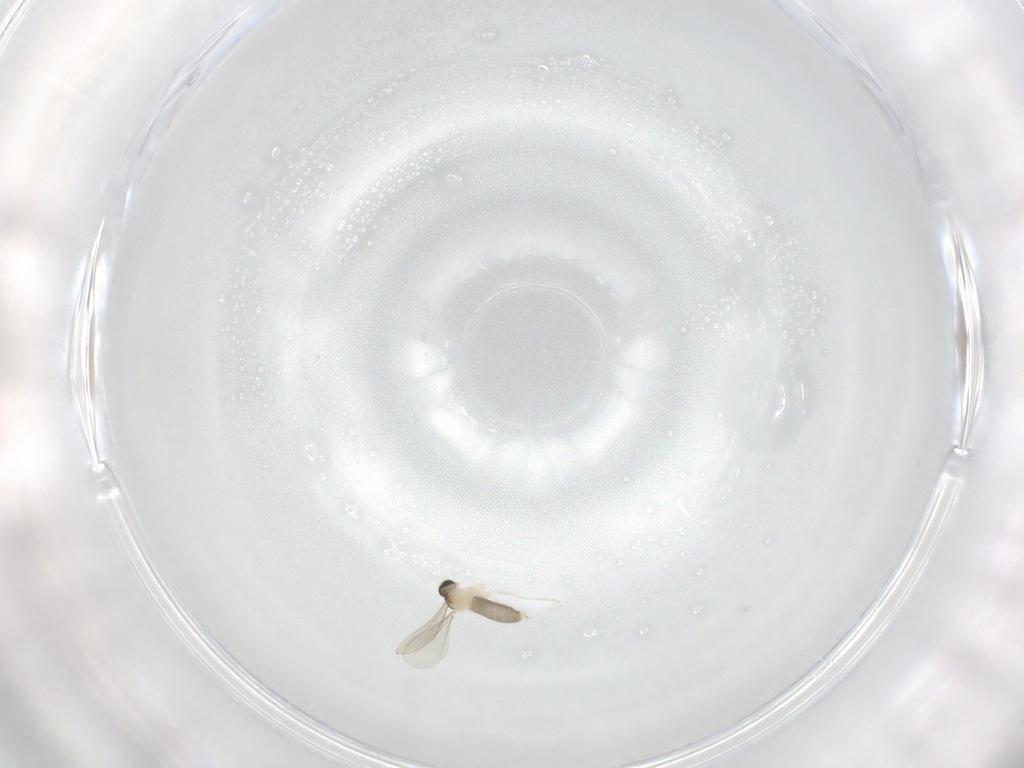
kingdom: Animalia
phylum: Arthropoda
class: Insecta
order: Diptera
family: Cecidomyiidae
